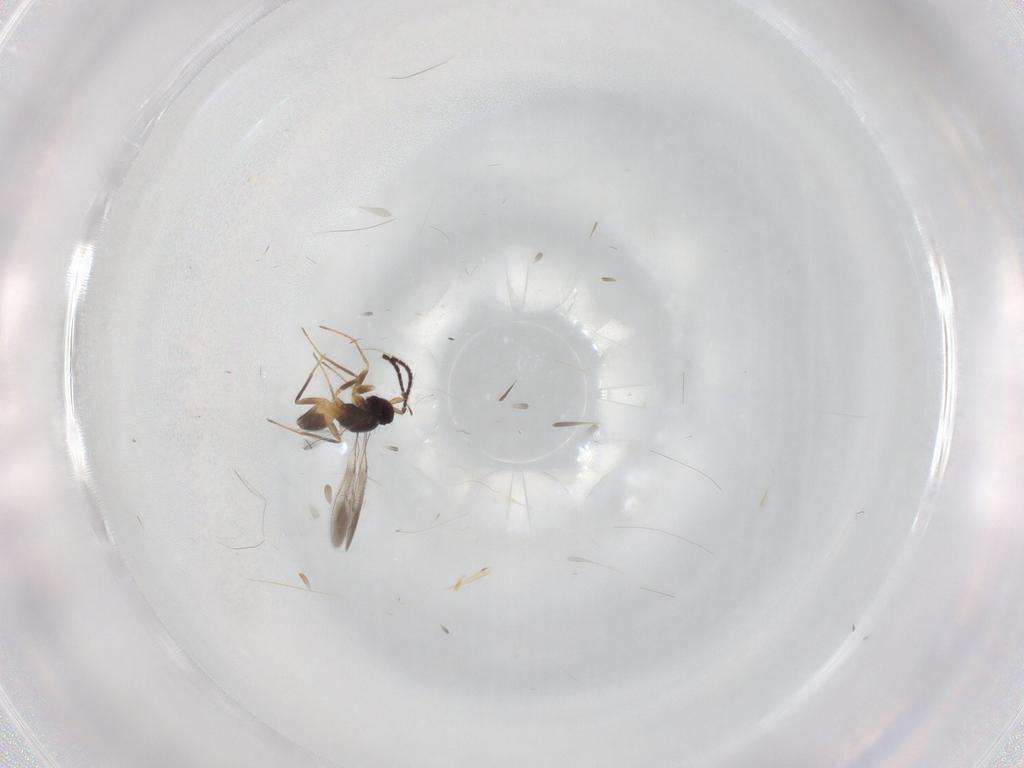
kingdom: Animalia
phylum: Arthropoda
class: Insecta
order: Hymenoptera
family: Mymaridae
